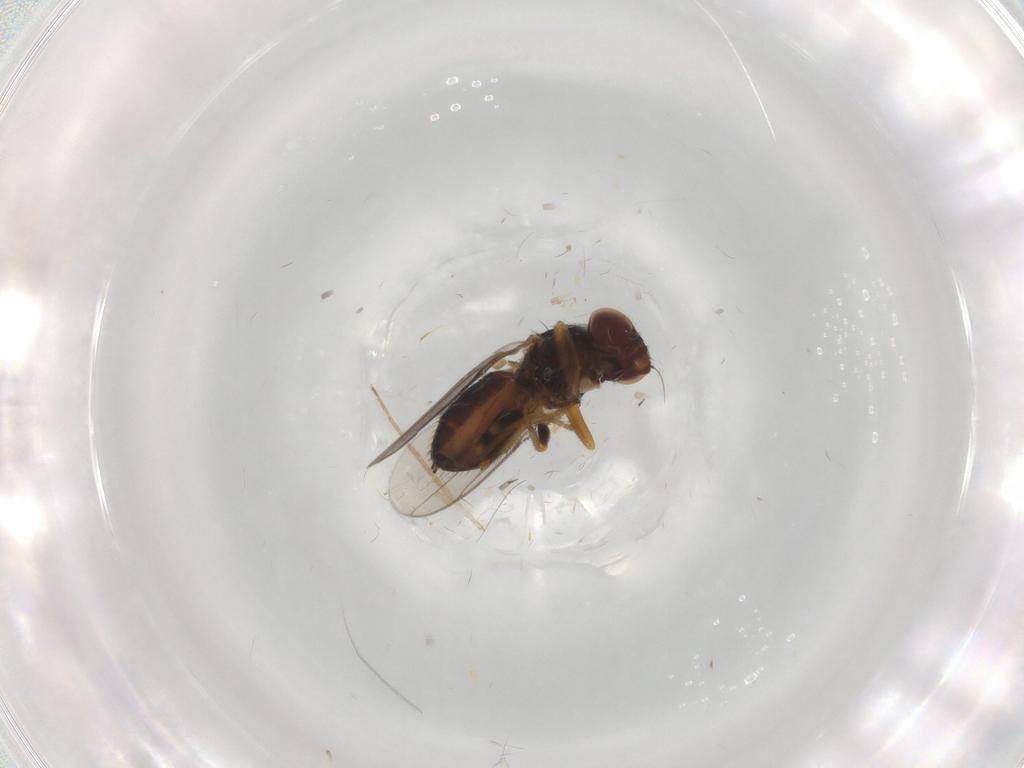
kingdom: Animalia
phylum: Arthropoda
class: Insecta
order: Diptera
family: Chloropidae
